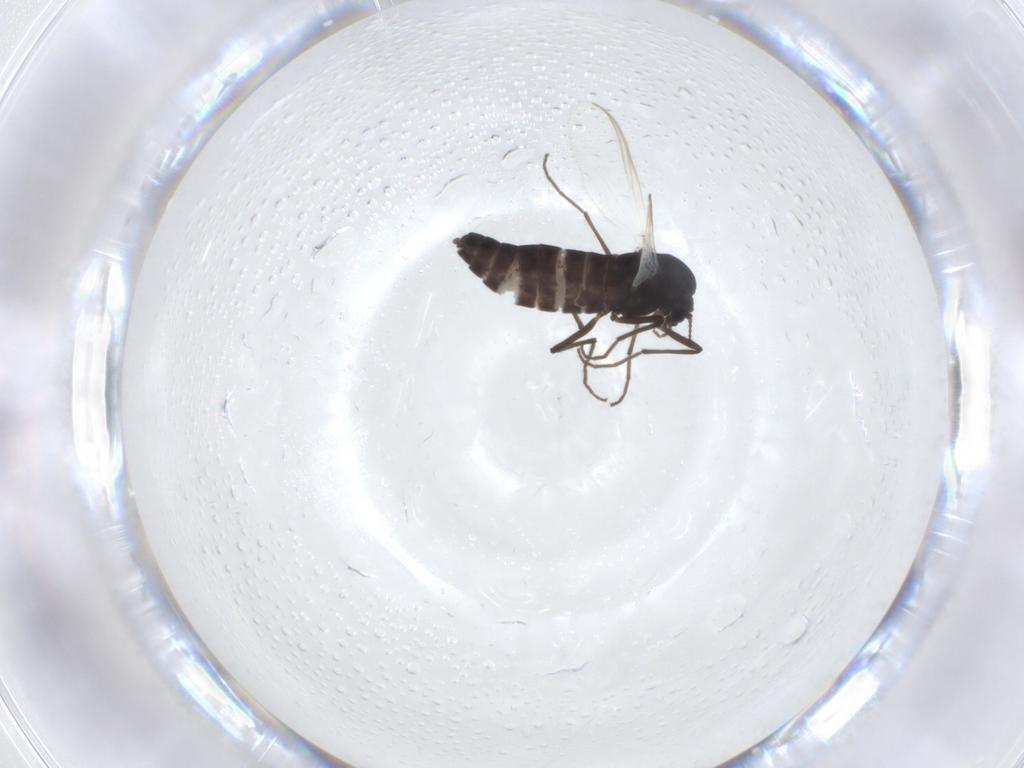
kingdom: Animalia
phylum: Arthropoda
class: Insecta
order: Diptera
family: Chironomidae
